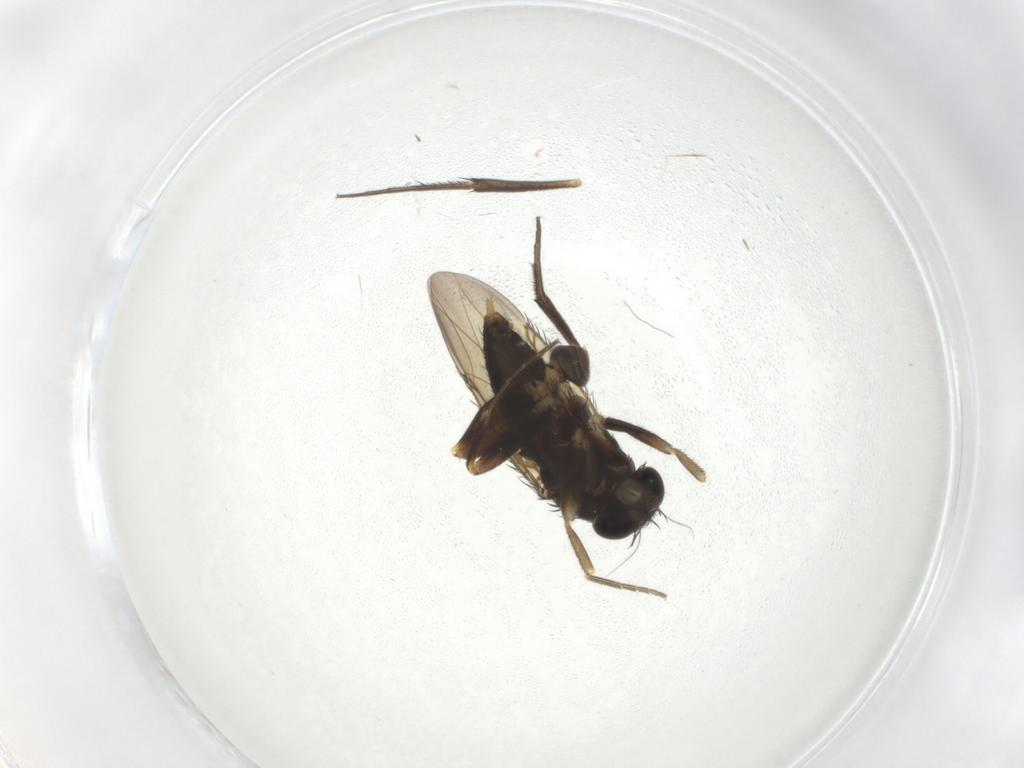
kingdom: Animalia
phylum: Arthropoda
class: Insecta
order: Diptera
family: Phoridae
